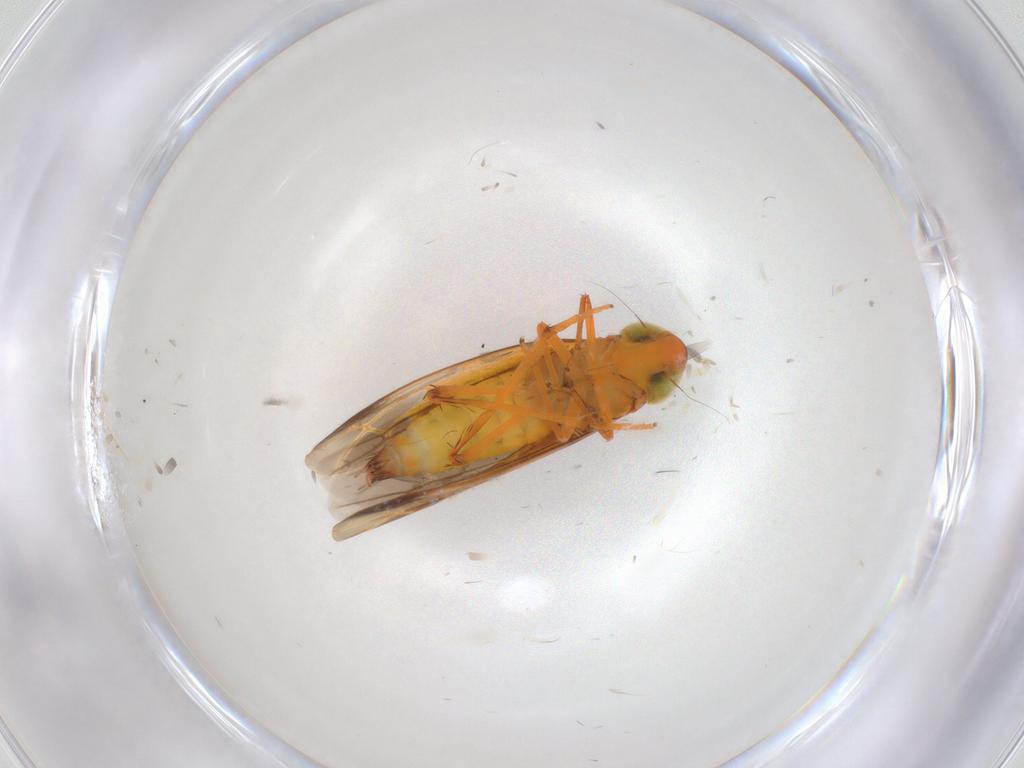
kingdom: Animalia
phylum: Arthropoda
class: Insecta
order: Hemiptera
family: Cicadellidae
